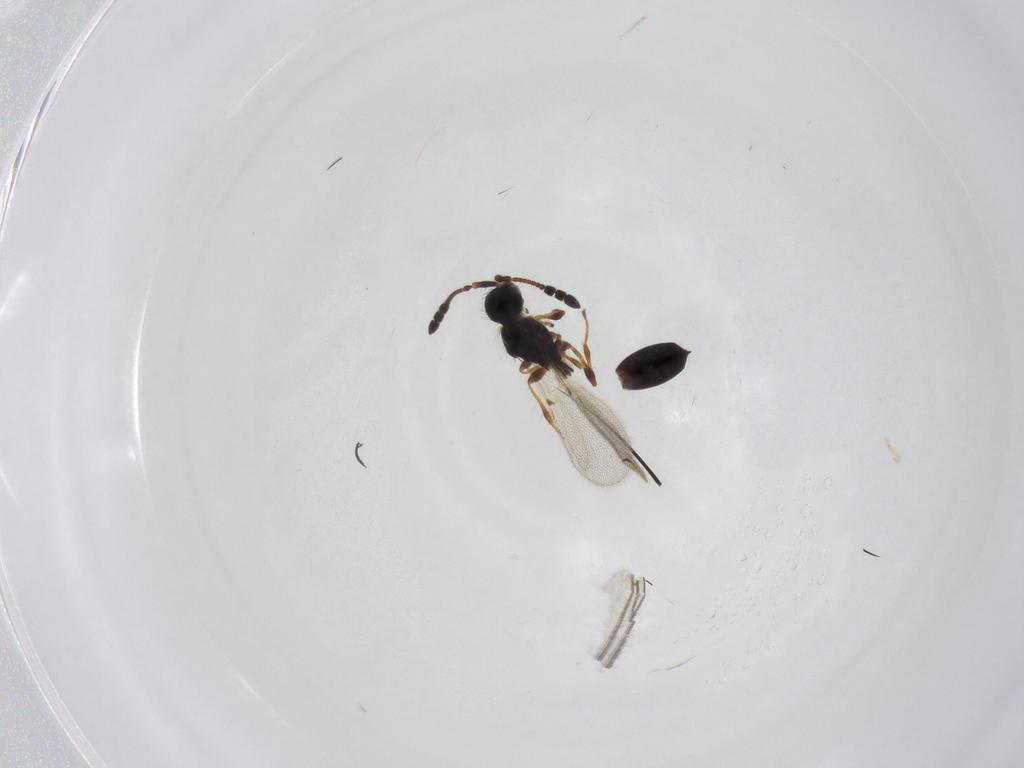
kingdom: Animalia
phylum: Arthropoda
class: Insecta
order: Hymenoptera
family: Diapriidae
